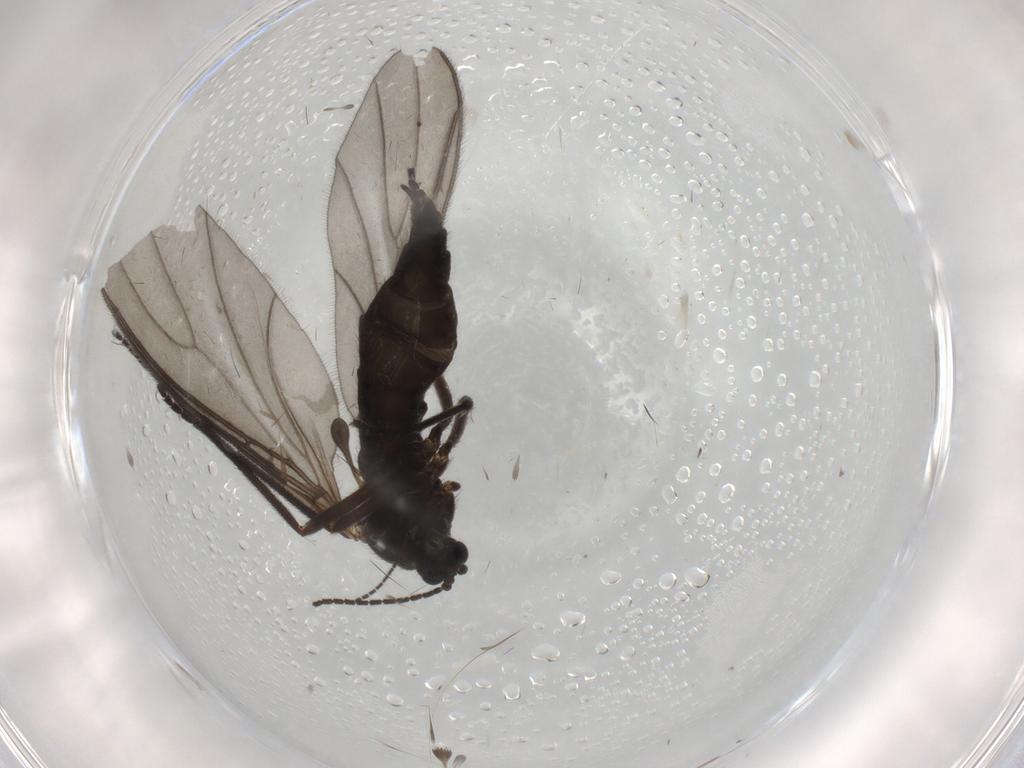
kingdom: Animalia
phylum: Arthropoda
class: Insecta
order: Diptera
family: Sciaridae
